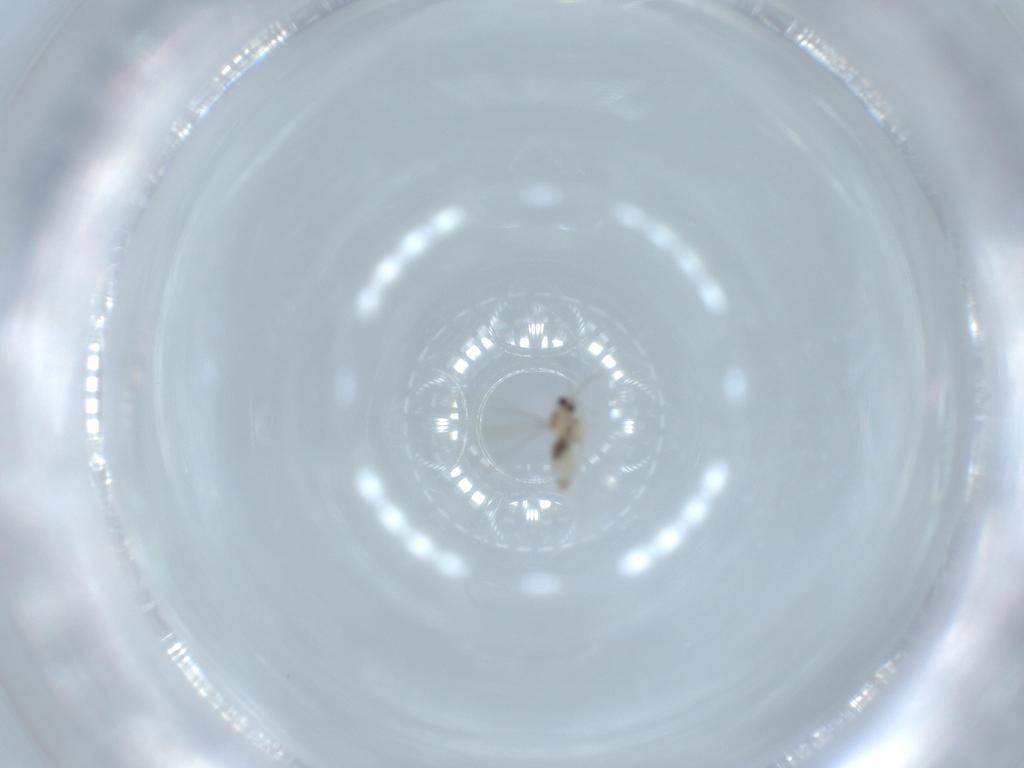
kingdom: Animalia
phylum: Arthropoda
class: Insecta
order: Diptera
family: Cecidomyiidae
